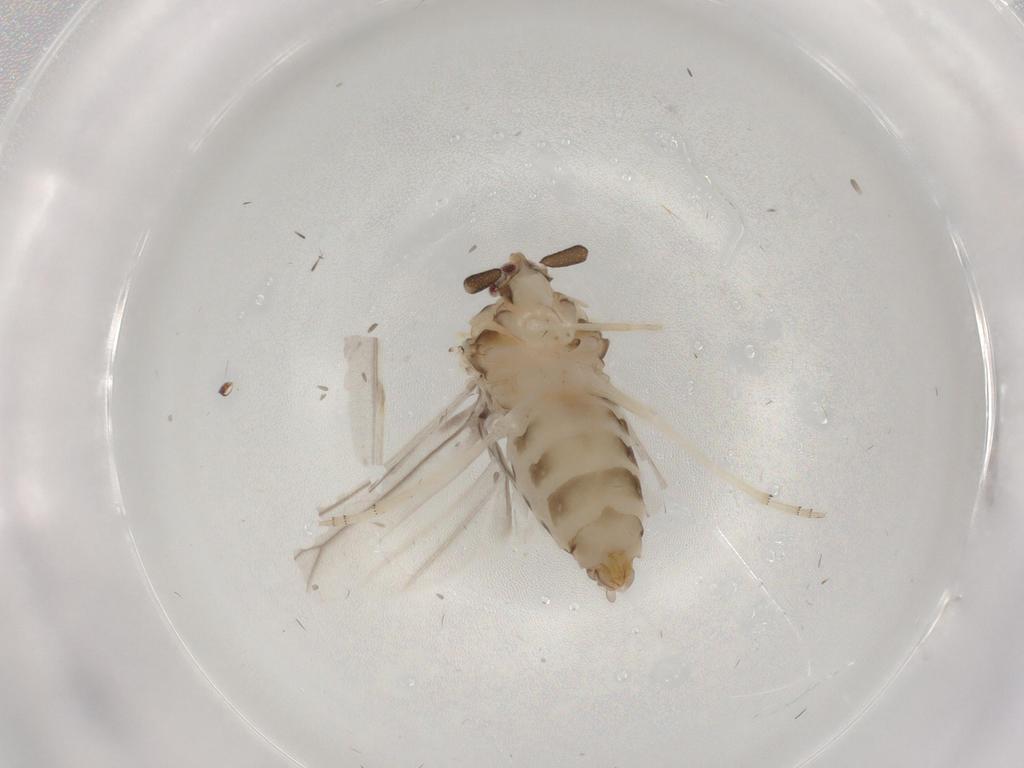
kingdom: Animalia
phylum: Arthropoda
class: Insecta
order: Hemiptera
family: Derbidae
